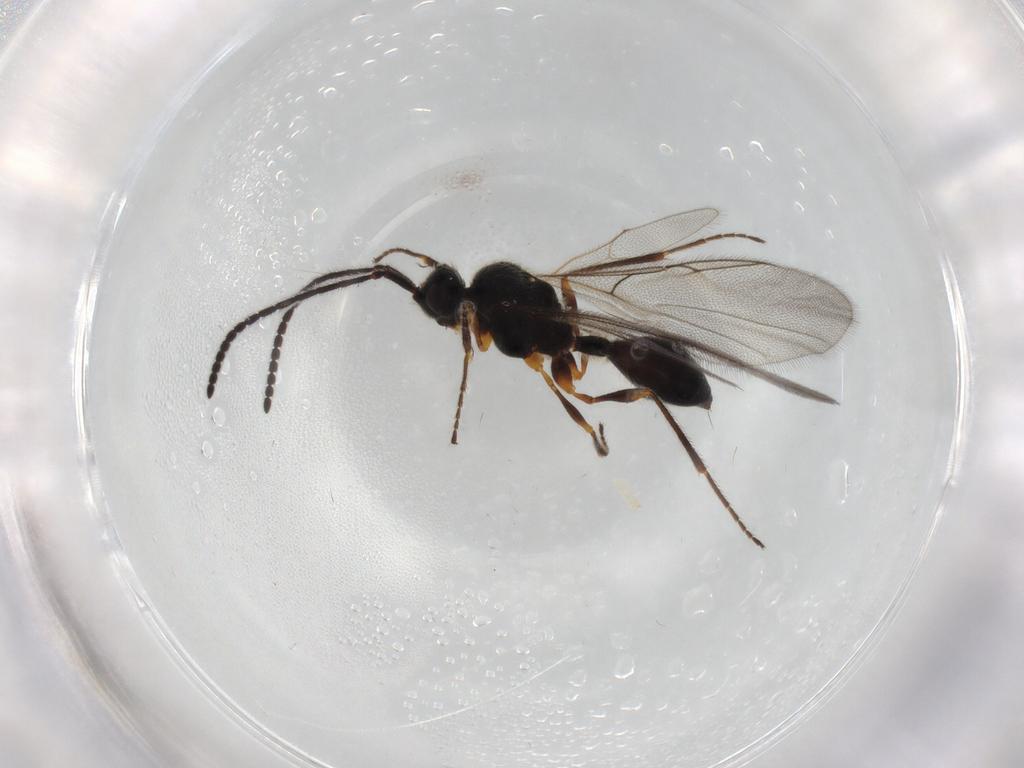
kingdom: Animalia
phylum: Arthropoda
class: Insecta
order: Hymenoptera
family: Diapriidae
